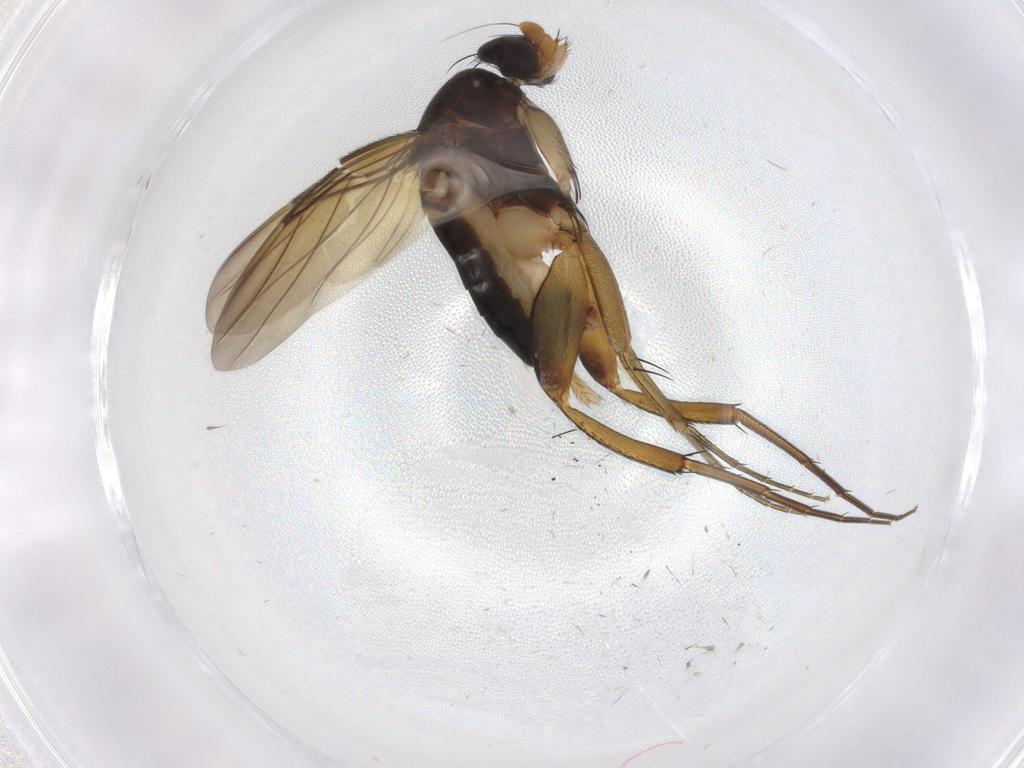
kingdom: Animalia
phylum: Arthropoda
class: Insecta
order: Diptera
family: Phoridae
